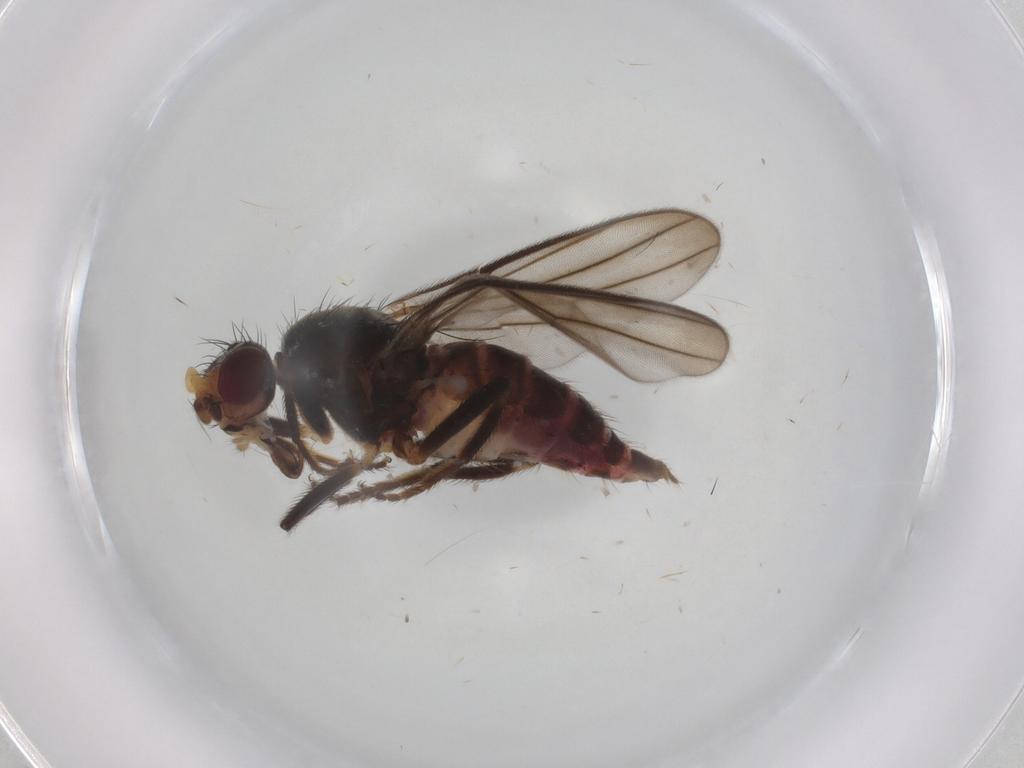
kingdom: Animalia
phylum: Arthropoda
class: Insecta
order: Diptera
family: Chloropidae
